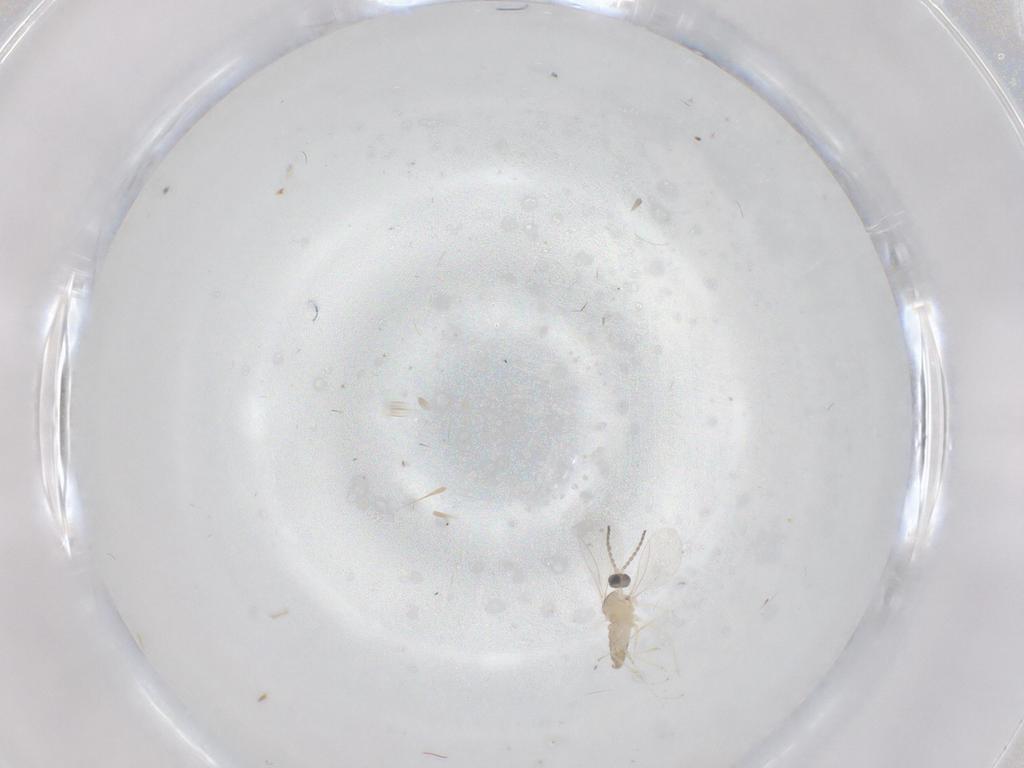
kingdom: Animalia
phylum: Arthropoda
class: Insecta
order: Diptera
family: Cecidomyiidae
